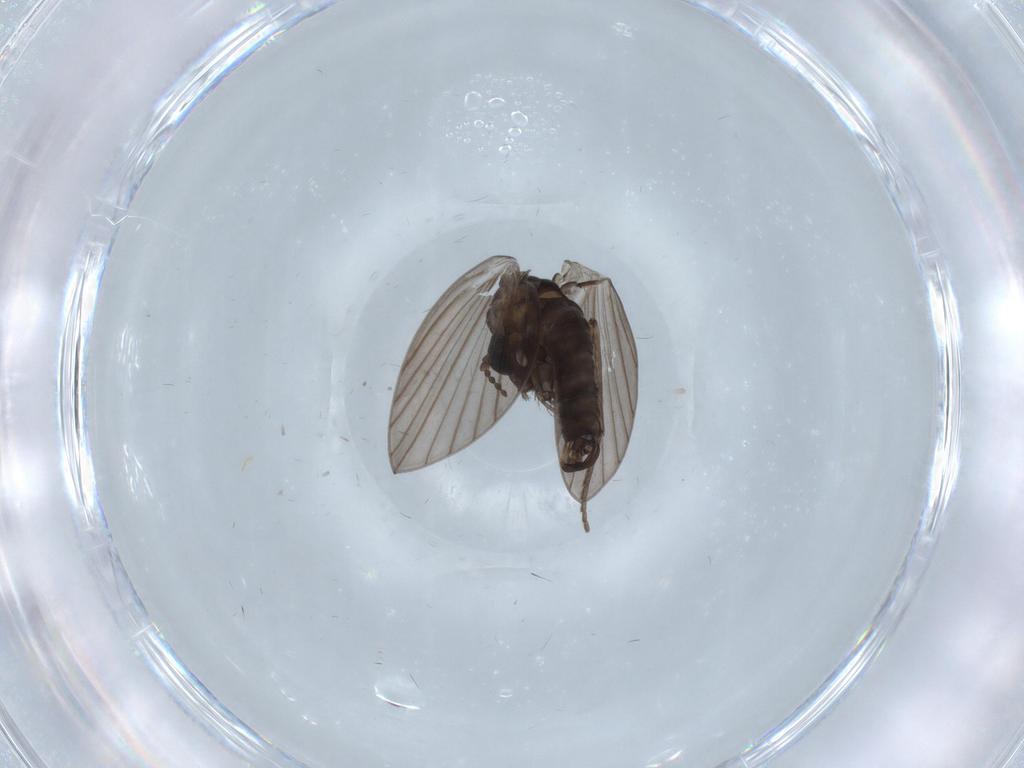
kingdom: Animalia
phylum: Arthropoda
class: Insecta
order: Diptera
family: Psychodidae
